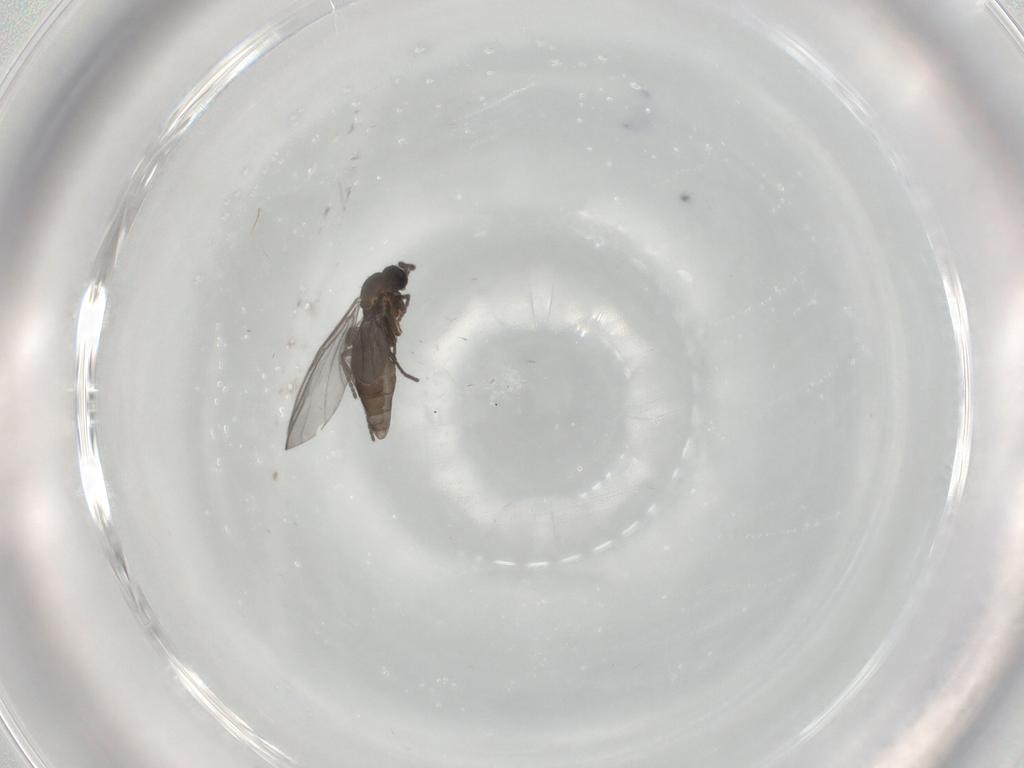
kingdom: Animalia
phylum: Arthropoda
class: Insecta
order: Diptera
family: Chironomidae
